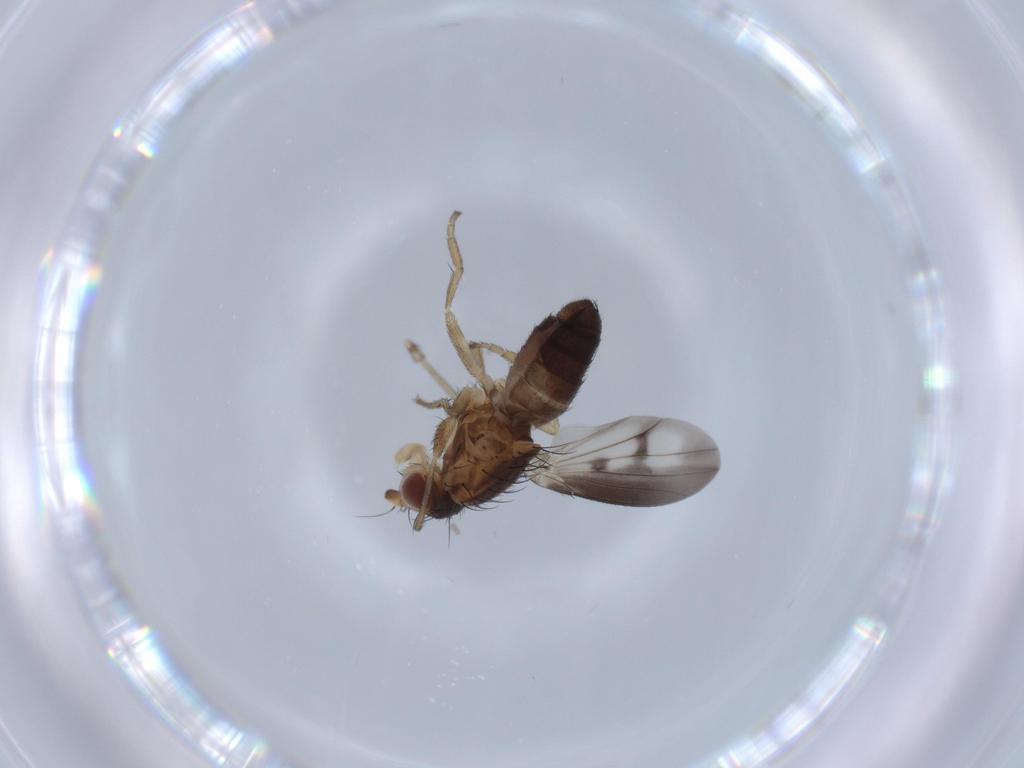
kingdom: Animalia
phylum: Arthropoda
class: Insecta
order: Diptera
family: Heleomyzidae
